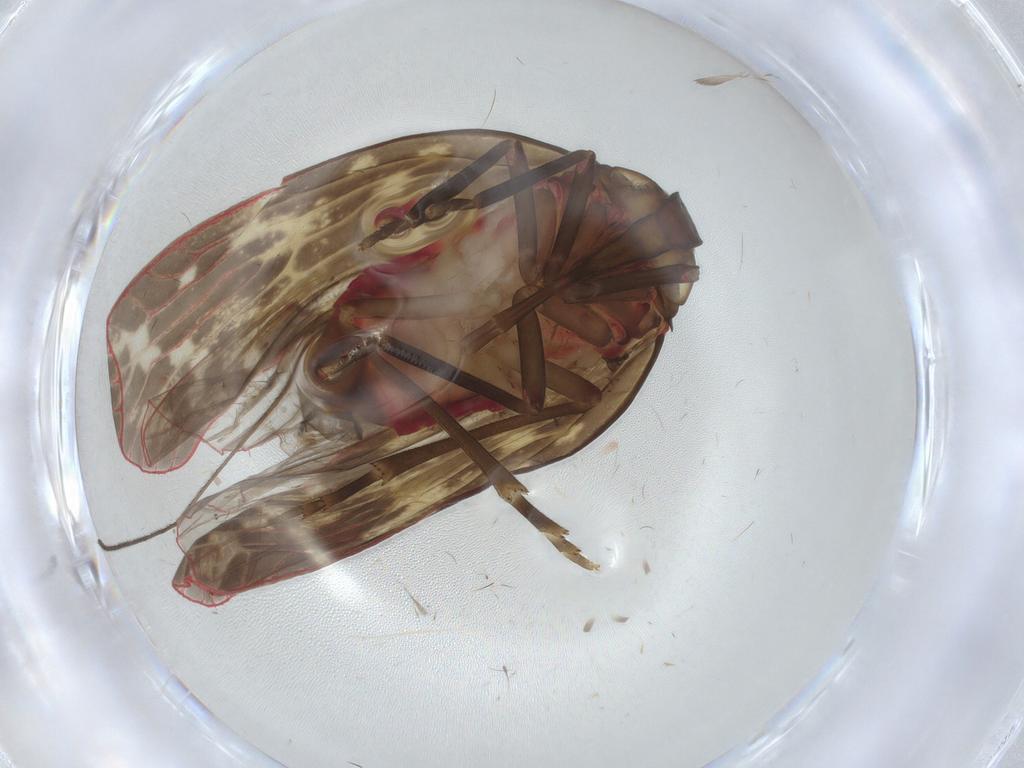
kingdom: Animalia
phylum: Arthropoda
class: Insecta
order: Hemiptera
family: Achilidae
